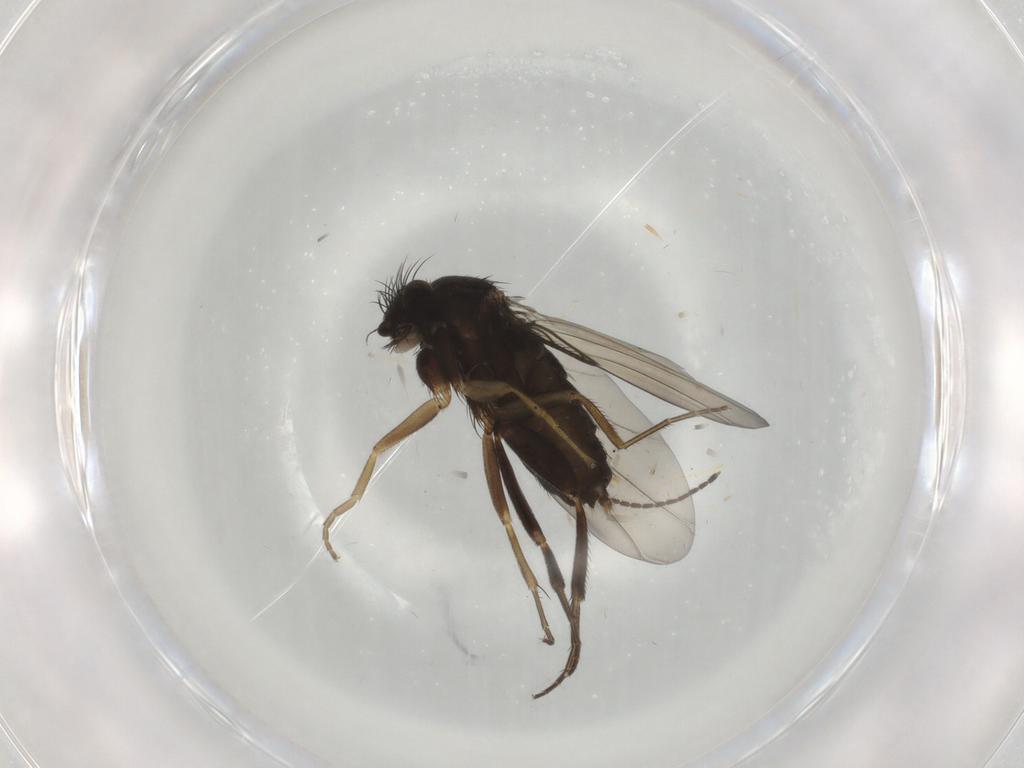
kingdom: Animalia
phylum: Arthropoda
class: Insecta
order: Diptera
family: Phoridae
